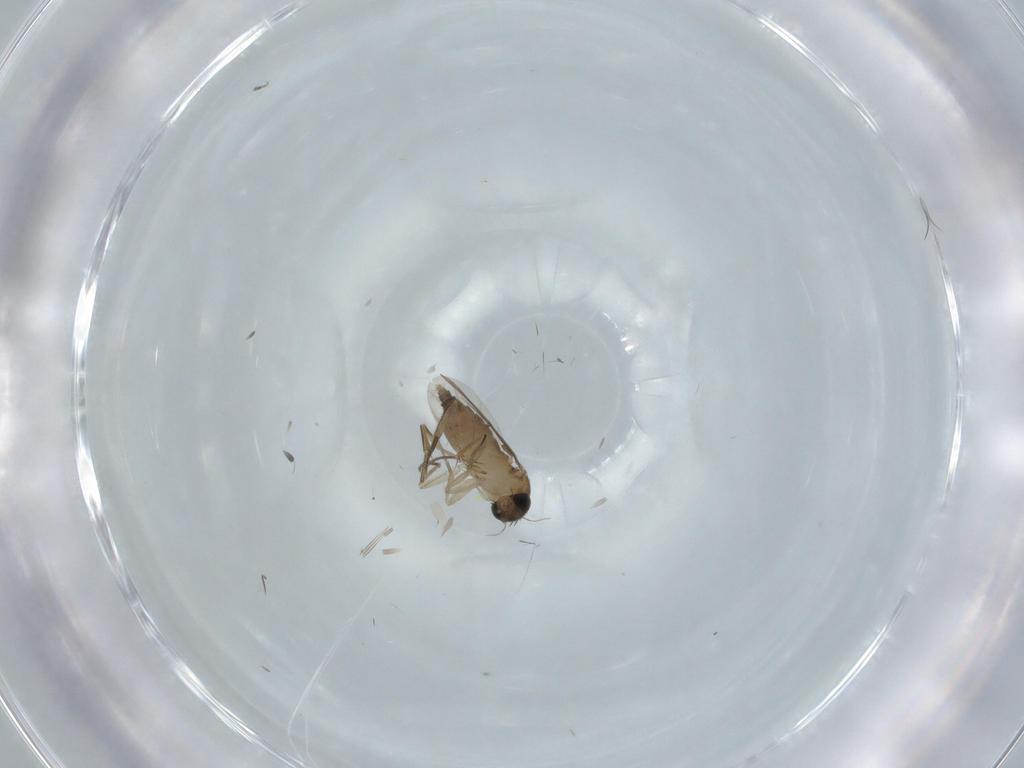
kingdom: Animalia
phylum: Arthropoda
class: Insecta
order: Diptera
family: Phoridae
